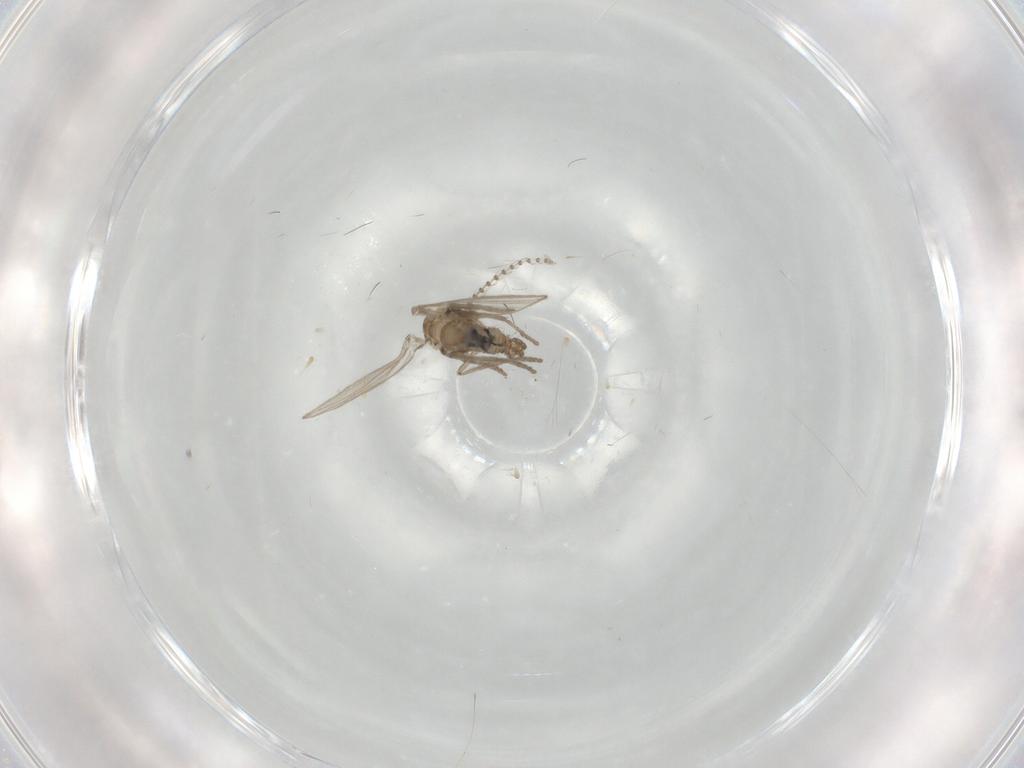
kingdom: Animalia
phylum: Arthropoda
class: Insecta
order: Diptera
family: Psychodidae
